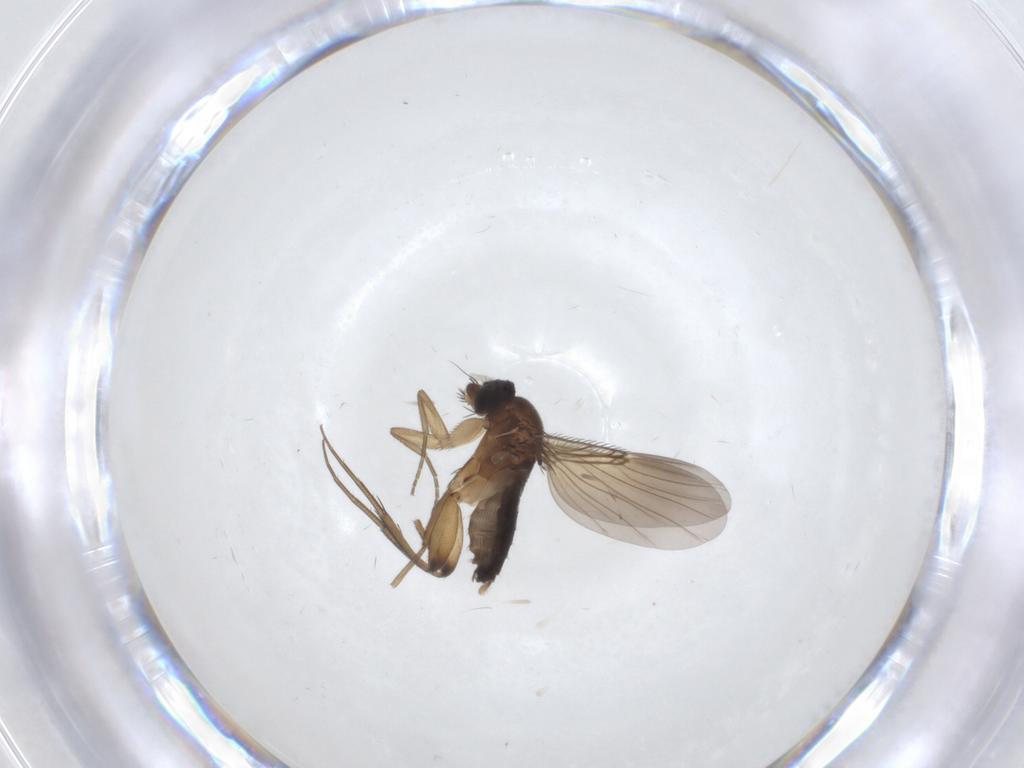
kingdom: Animalia
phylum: Arthropoda
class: Insecta
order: Diptera
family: Phoridae
